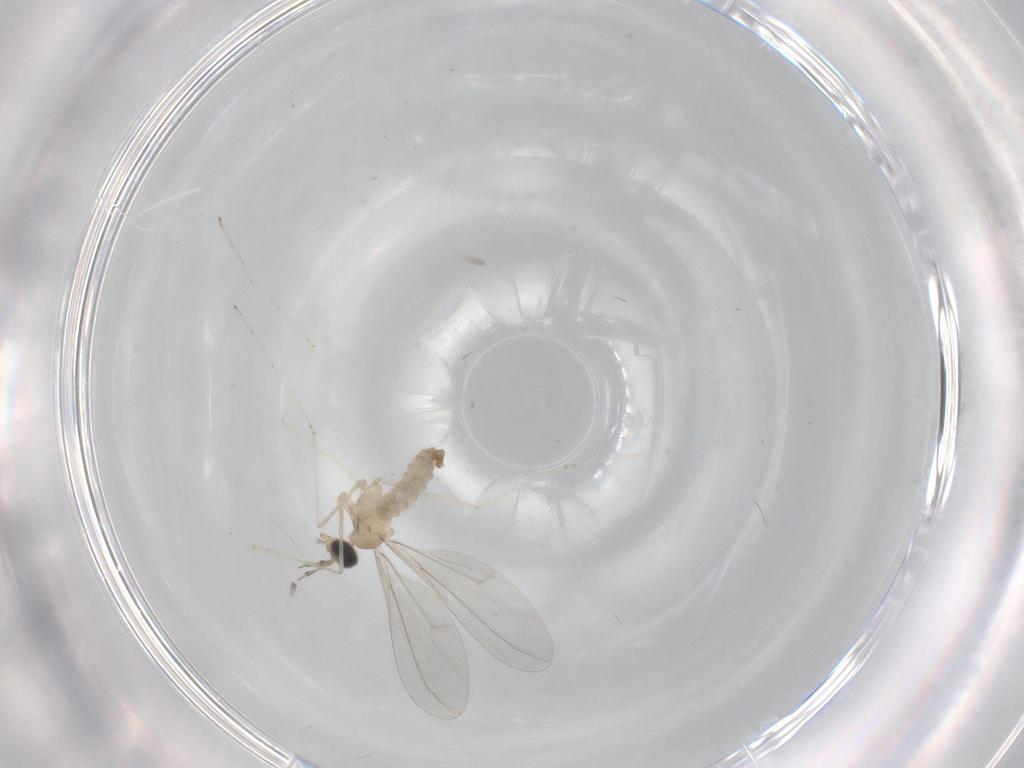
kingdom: Animalia
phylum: Arthropoda
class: Insecta
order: Diptera
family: Cecidomyiidae
